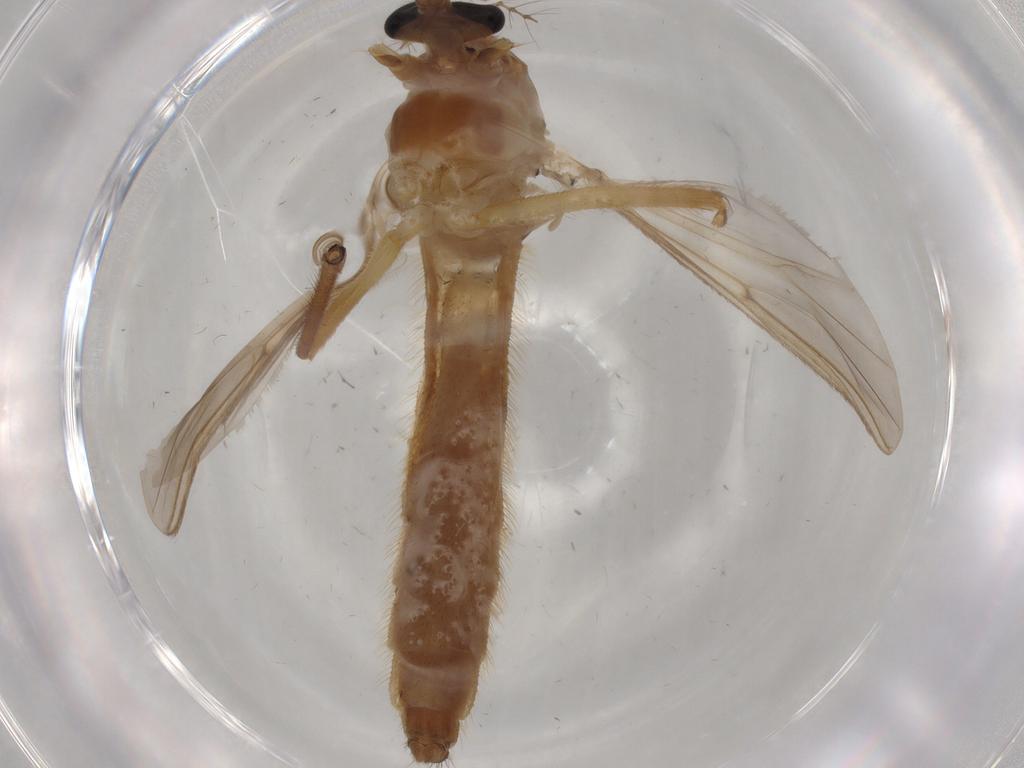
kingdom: Animalia
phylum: Arthropoda
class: Insecta
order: Diptera
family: Chironomidae
